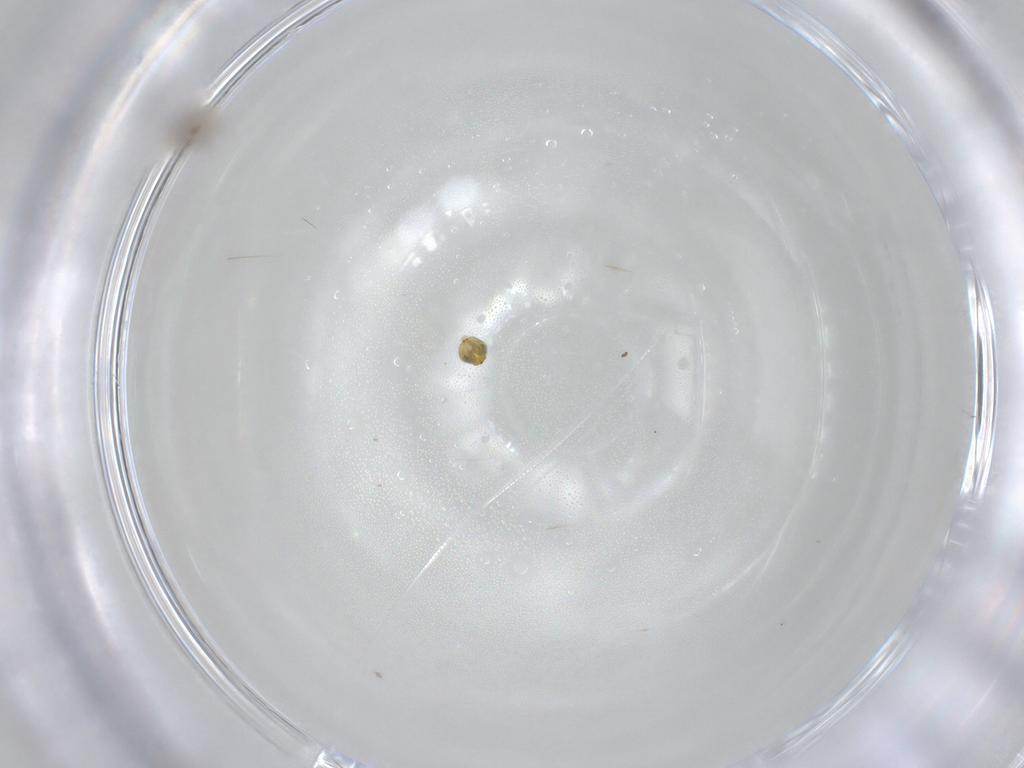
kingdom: Animalia
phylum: Arthropoda
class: Insecta
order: Hymenoptera
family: Aphelinidae
